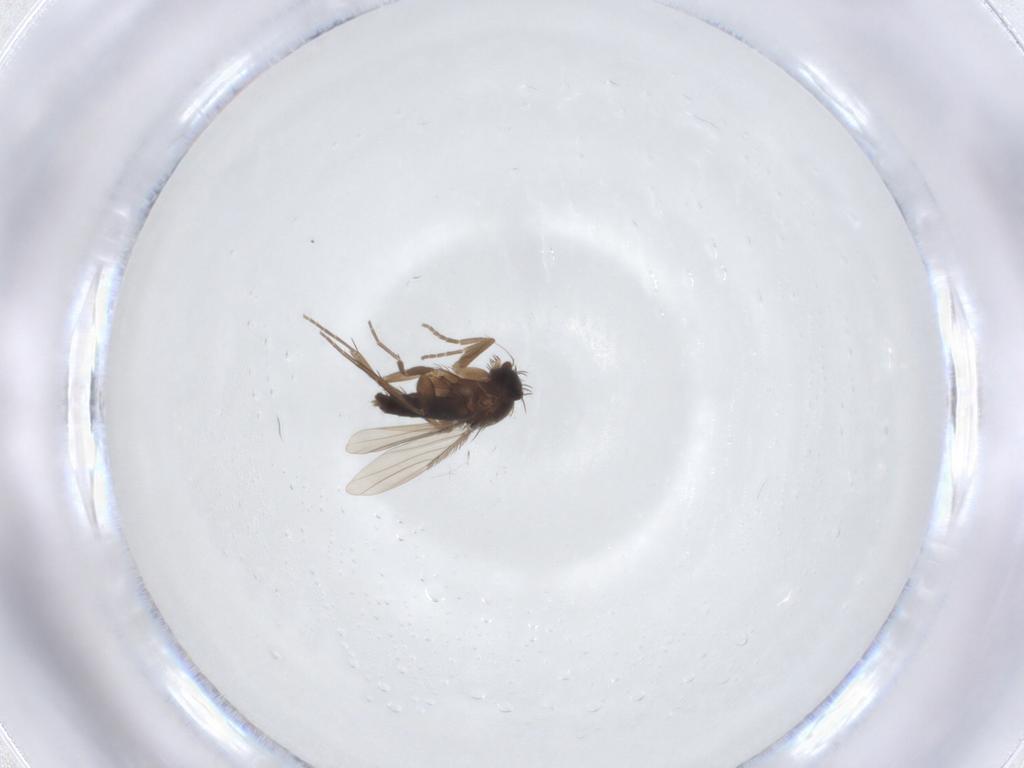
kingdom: Animalia
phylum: Arthropoda
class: Insecta
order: Diptera
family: Phoridae
